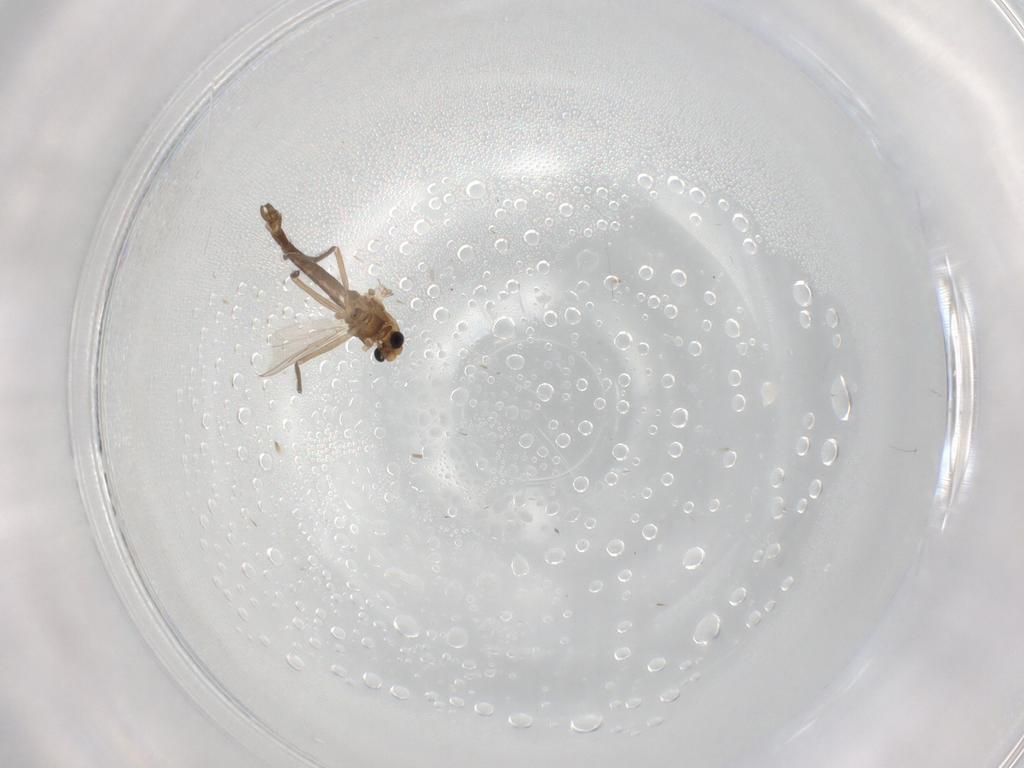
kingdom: Animalia
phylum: Arthropoda
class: Insecta
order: Diptera
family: Chironomidae
